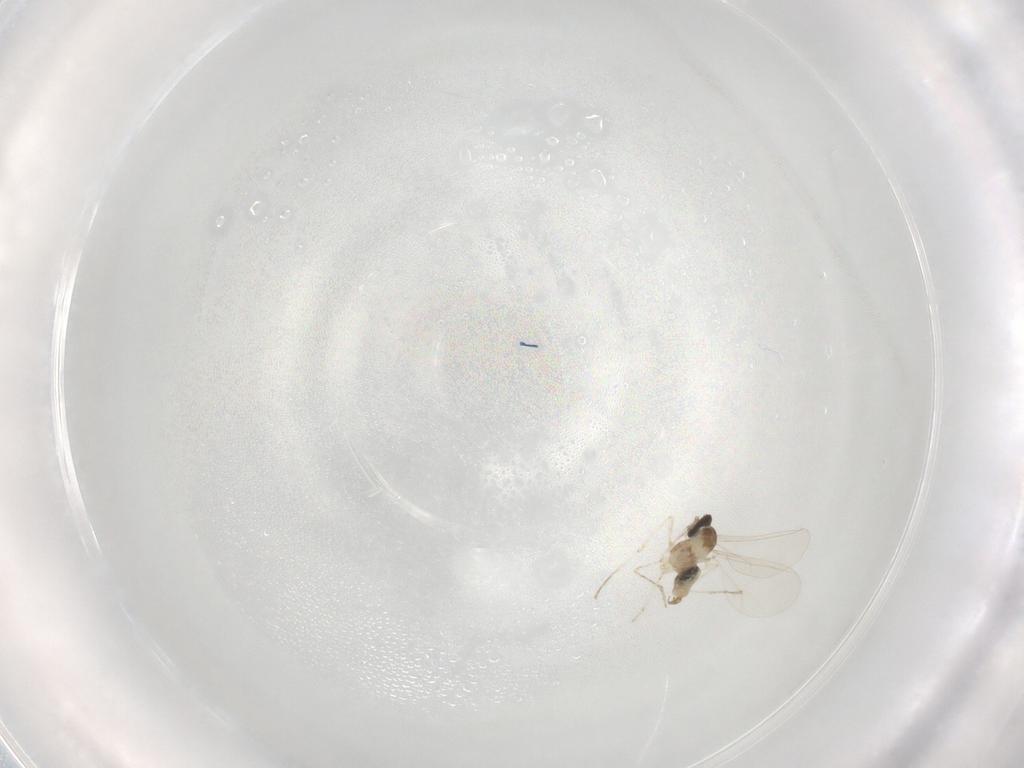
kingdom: Animalia
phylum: Arthropoda
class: Insecta
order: Diptera
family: Cecidomyiidae
